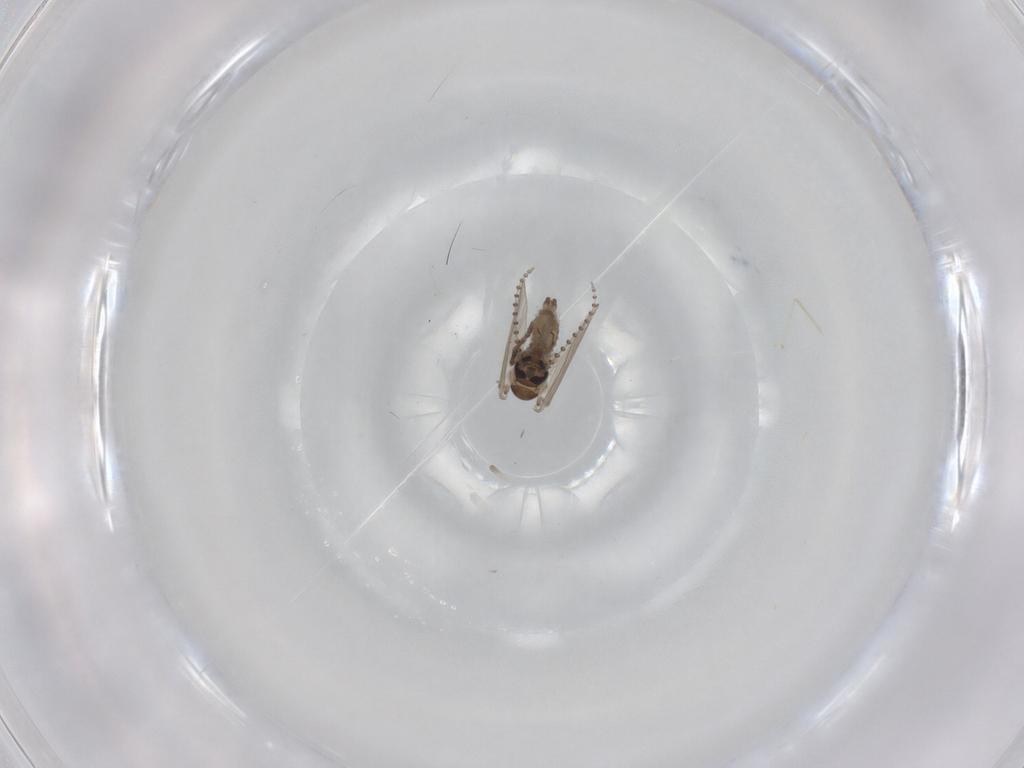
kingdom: Animalia
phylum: Arthropoda
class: Insecta
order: Diptera
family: Psychodidae
